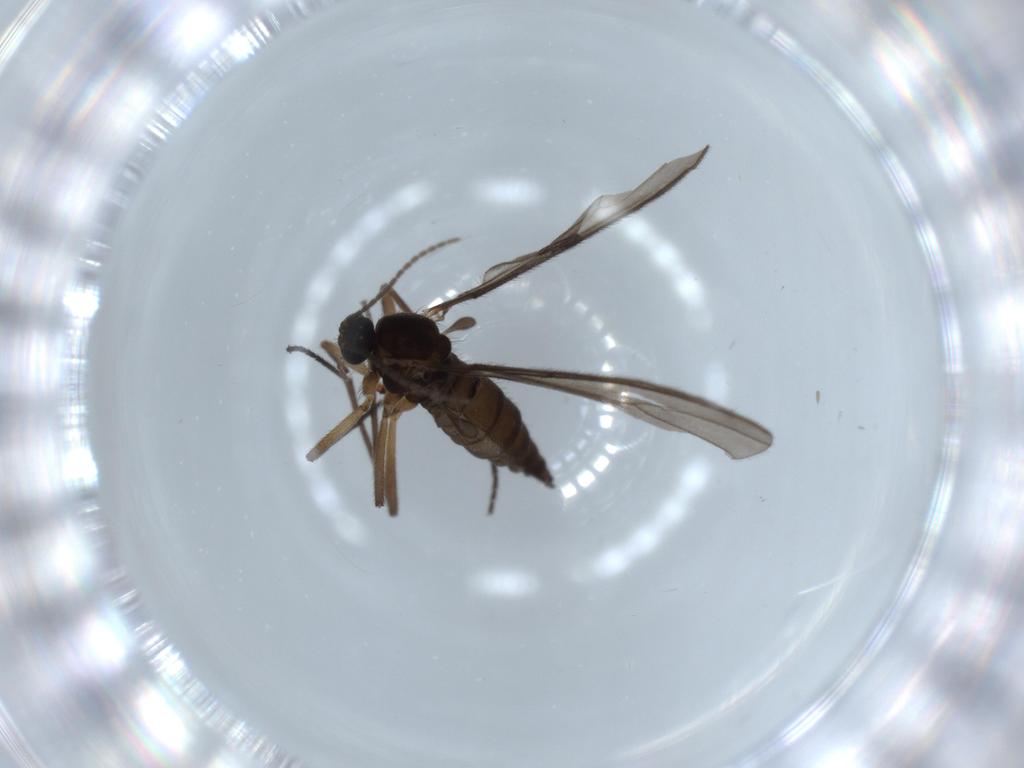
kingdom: Animalia
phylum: Arthropoda
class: Insecta
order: Diptera
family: Sciaridae
